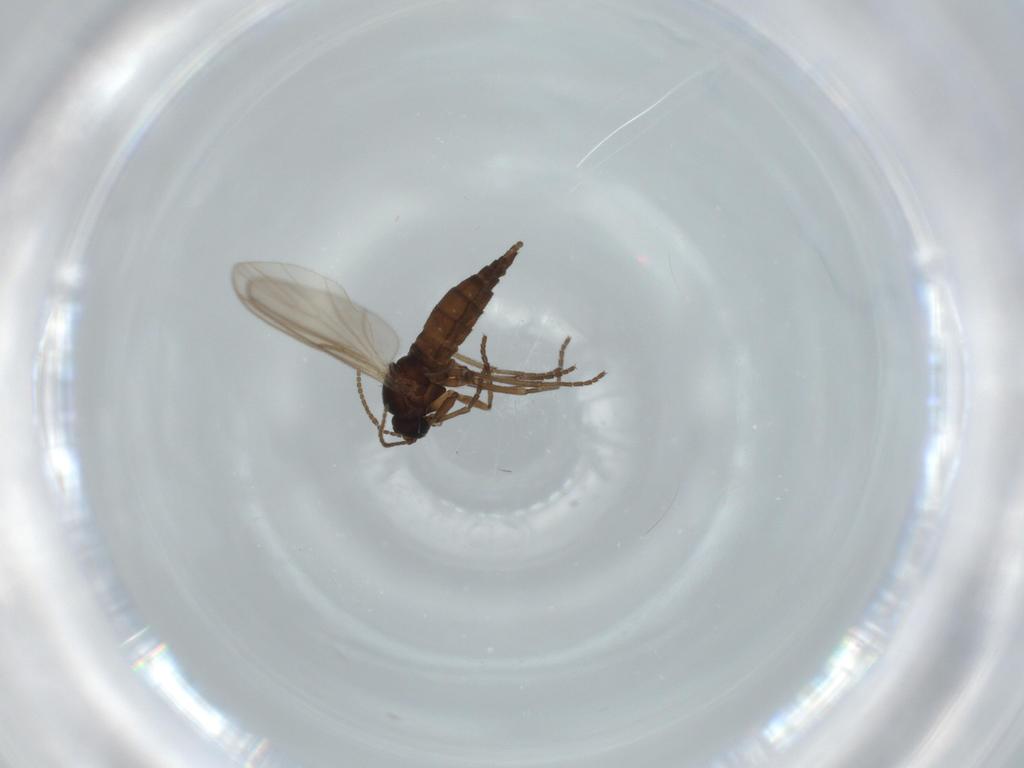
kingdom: Animalia
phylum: Arthropoda
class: Insecta
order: Diptera
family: Sciaridae
